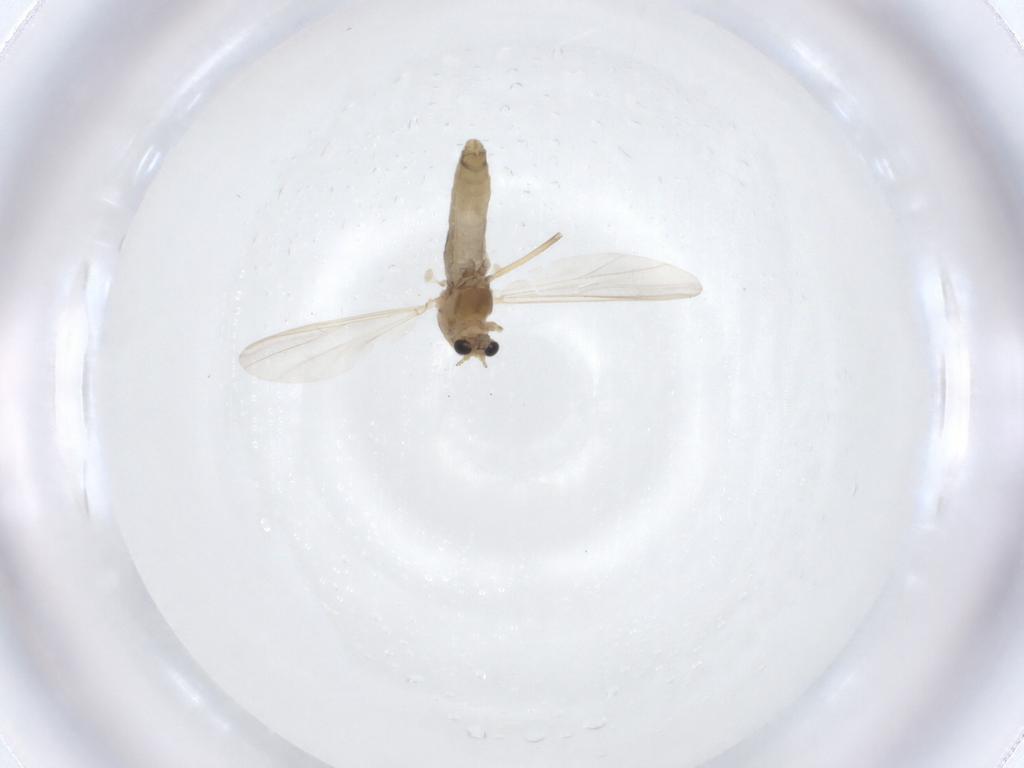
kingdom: Animalia
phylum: Arthropoda
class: Insecta
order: Diptera
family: Chironomidae
